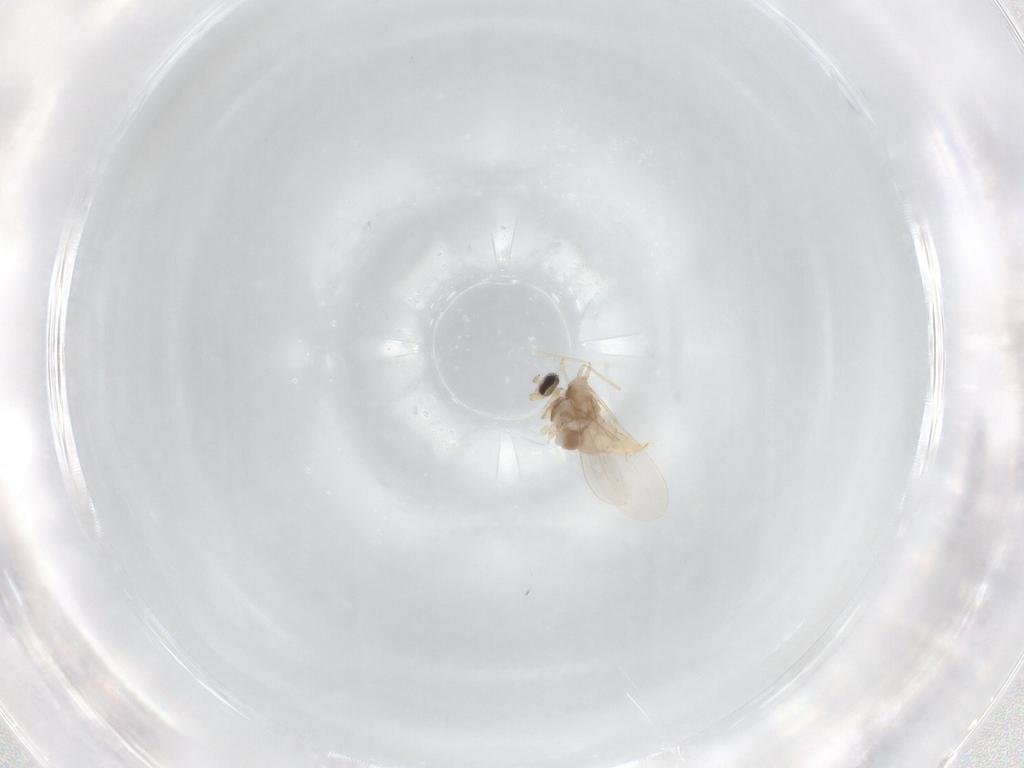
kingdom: Animalia
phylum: Arthropoda
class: Insecta
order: Diptera
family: Cecidomyiidae
